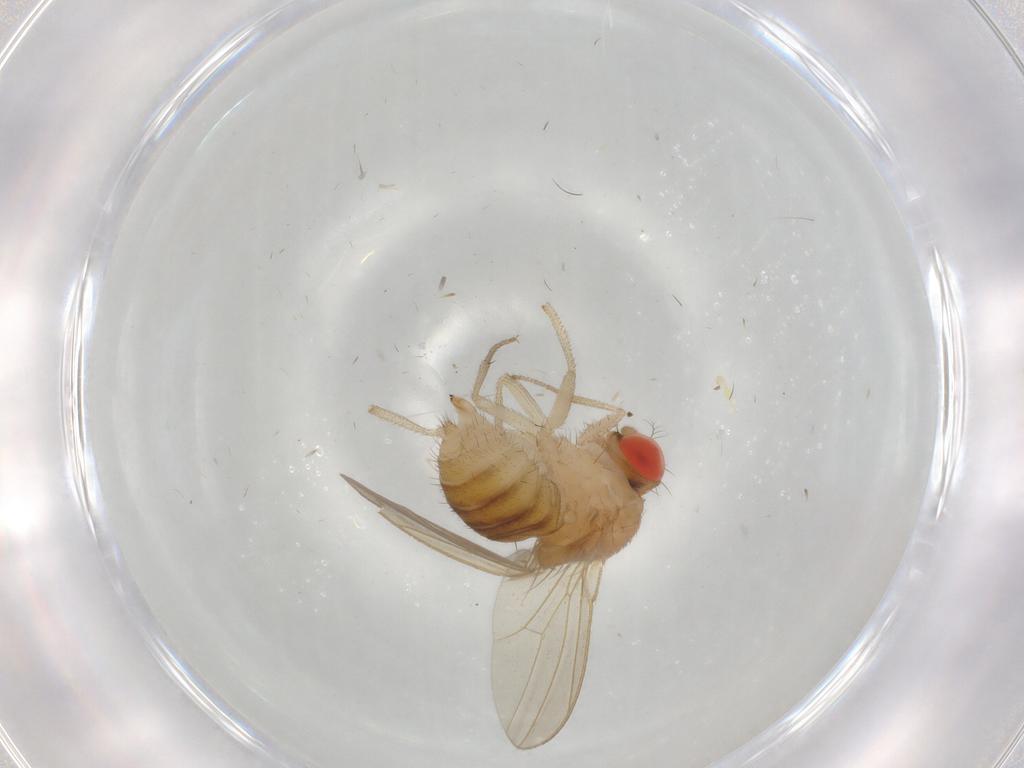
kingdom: Animalia
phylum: Arthropoda
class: Insecta
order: Diptera
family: Drosophilidae
